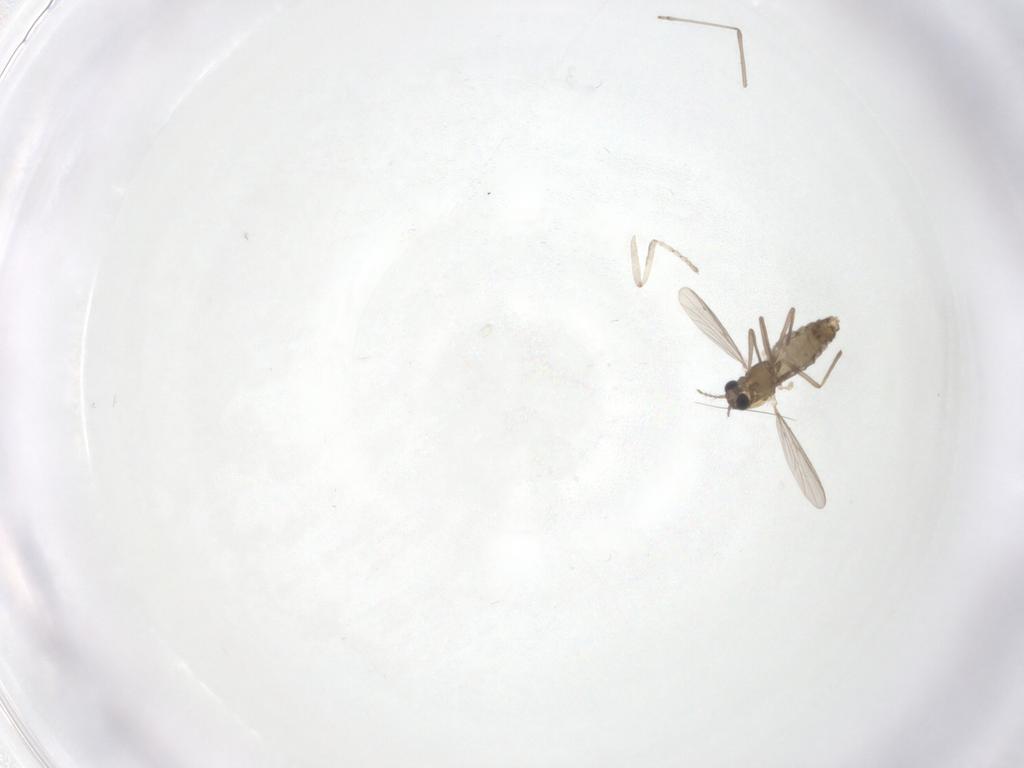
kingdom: Animalia
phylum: Arthropoda
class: Insecta
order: Diptera
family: Chironomidae
